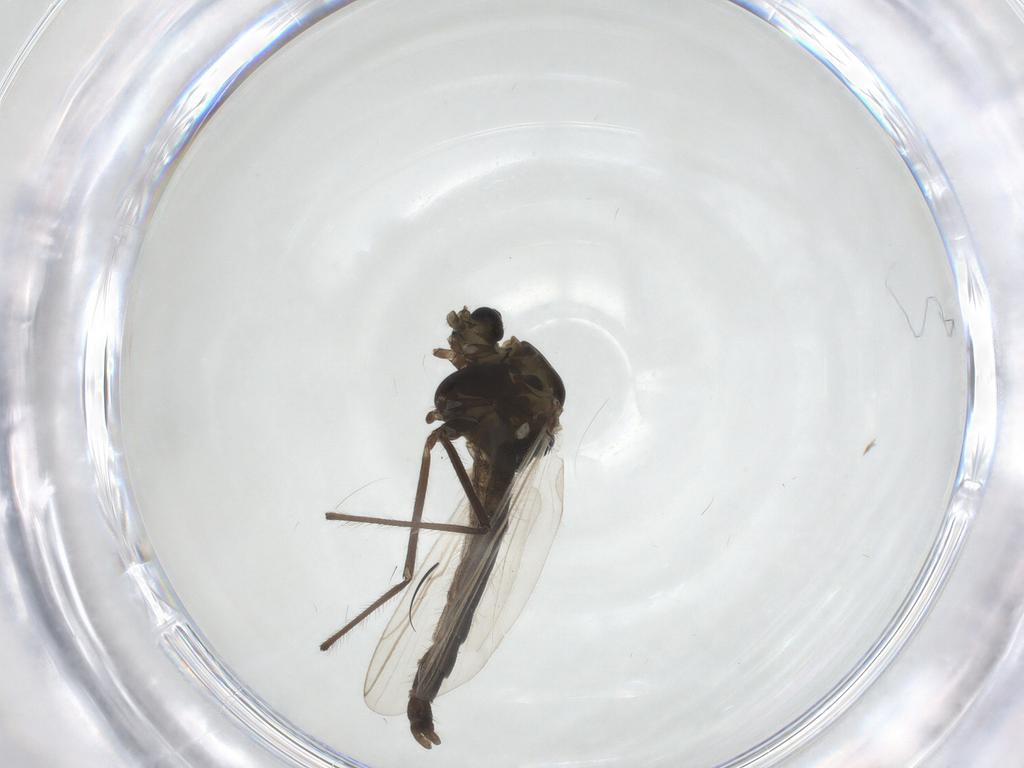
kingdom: Animalia
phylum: Arthropoda
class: Insecta
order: Diptera
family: Chironomidae
